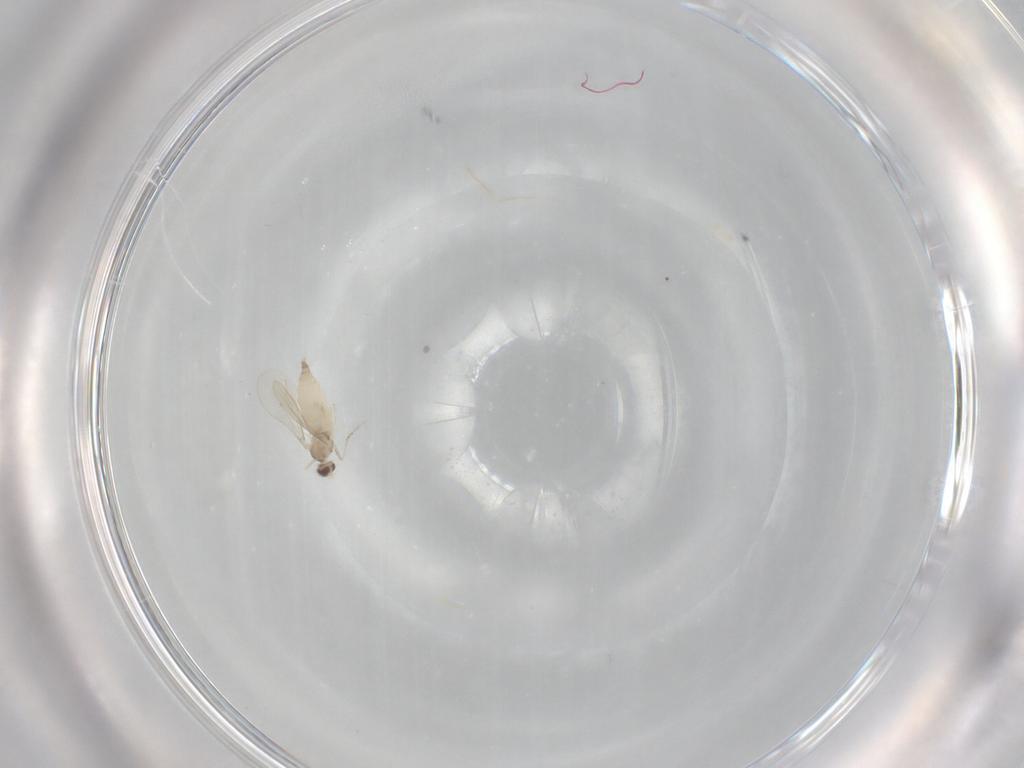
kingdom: Animalia
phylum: Arthropoda
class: Insecta
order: Diptera
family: Cecidomyiidae
